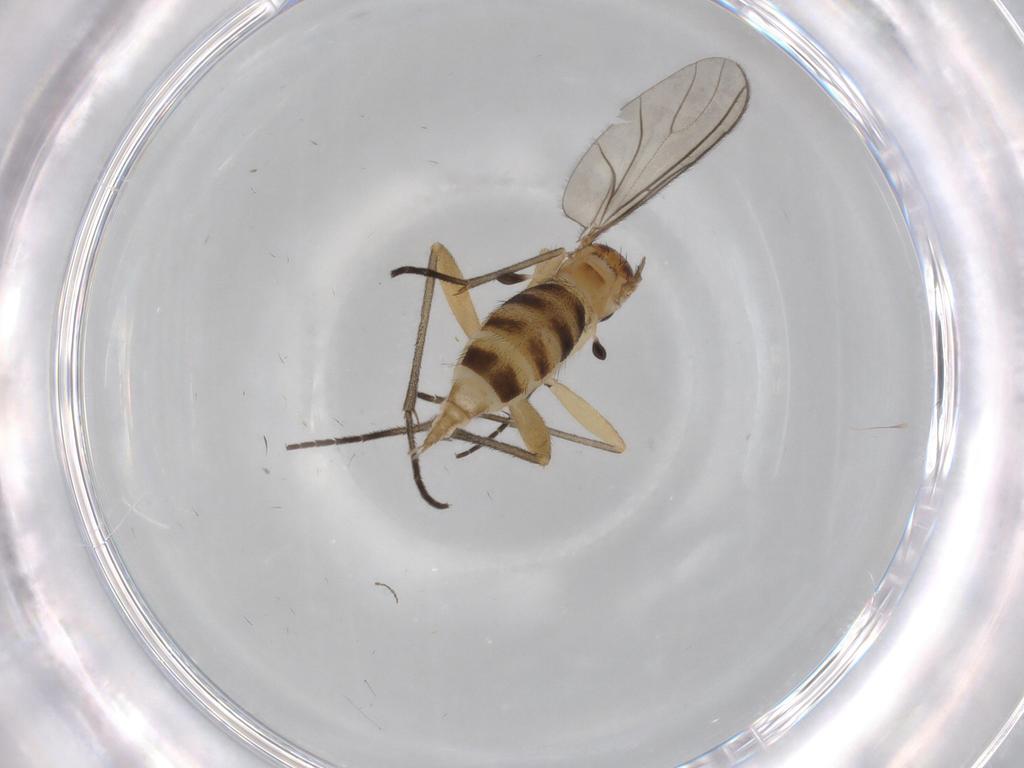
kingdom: Animalia
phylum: Arthropoda
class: Insecta
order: Diptera
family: Sciaridae
